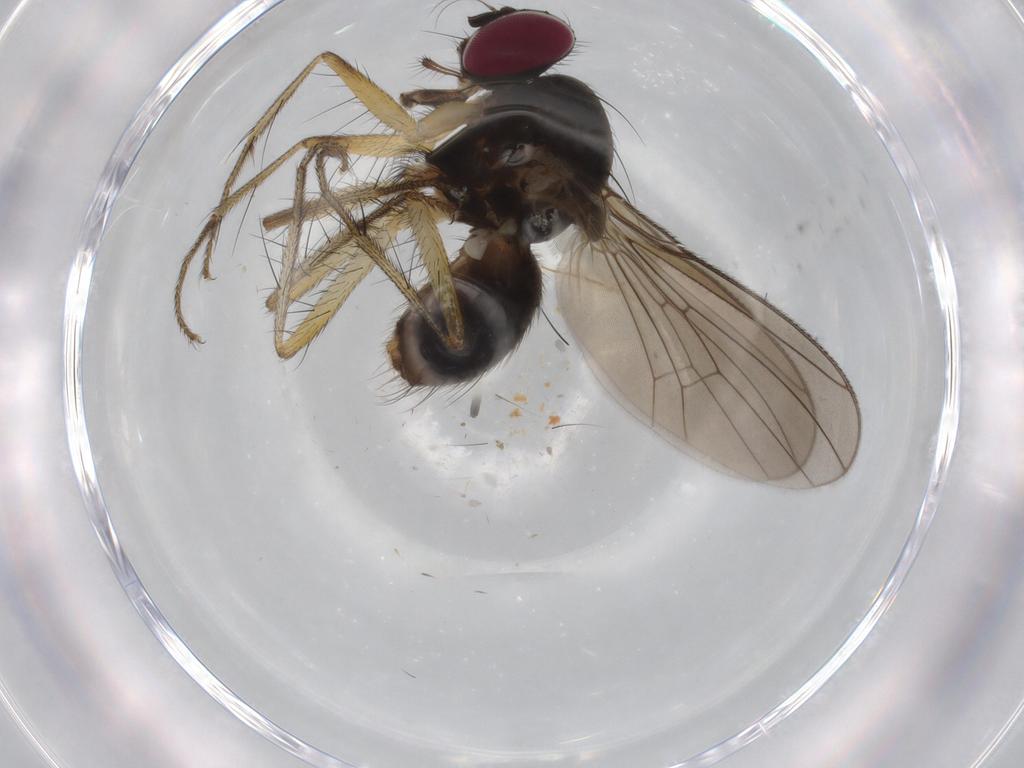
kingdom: Animalia
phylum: Arthropoda
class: Insecta
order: Diptera
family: Anthomyiidae
